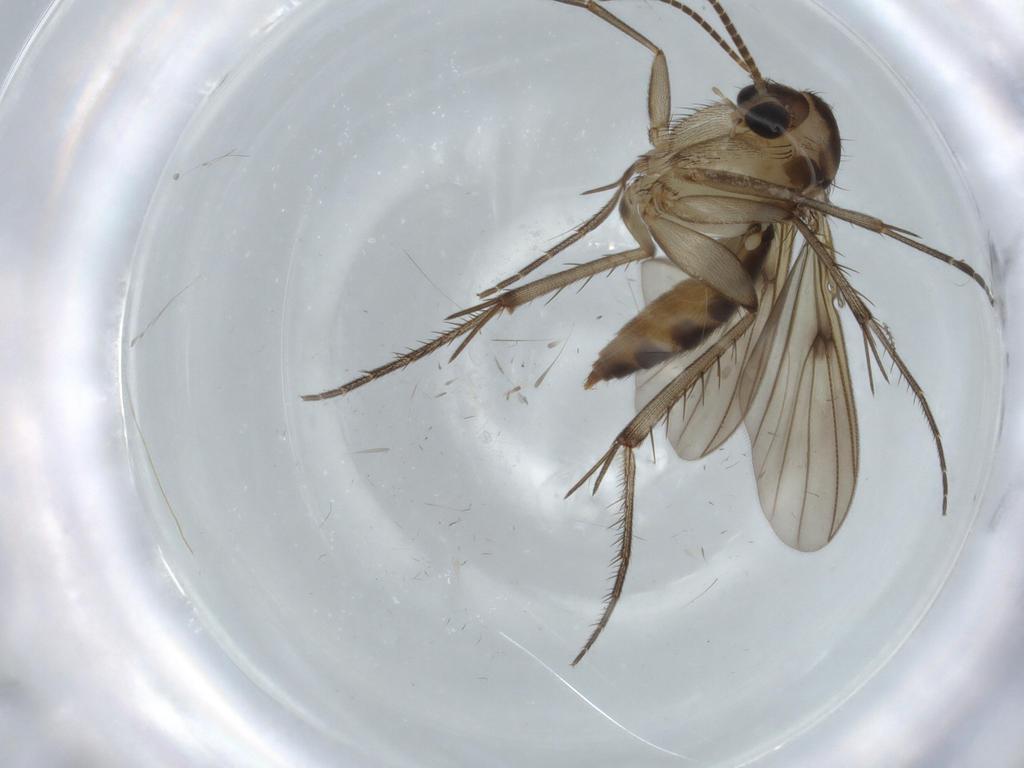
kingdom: Animalia
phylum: Arthropoda
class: Insecta
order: Diptera
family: Mycetophilidae
